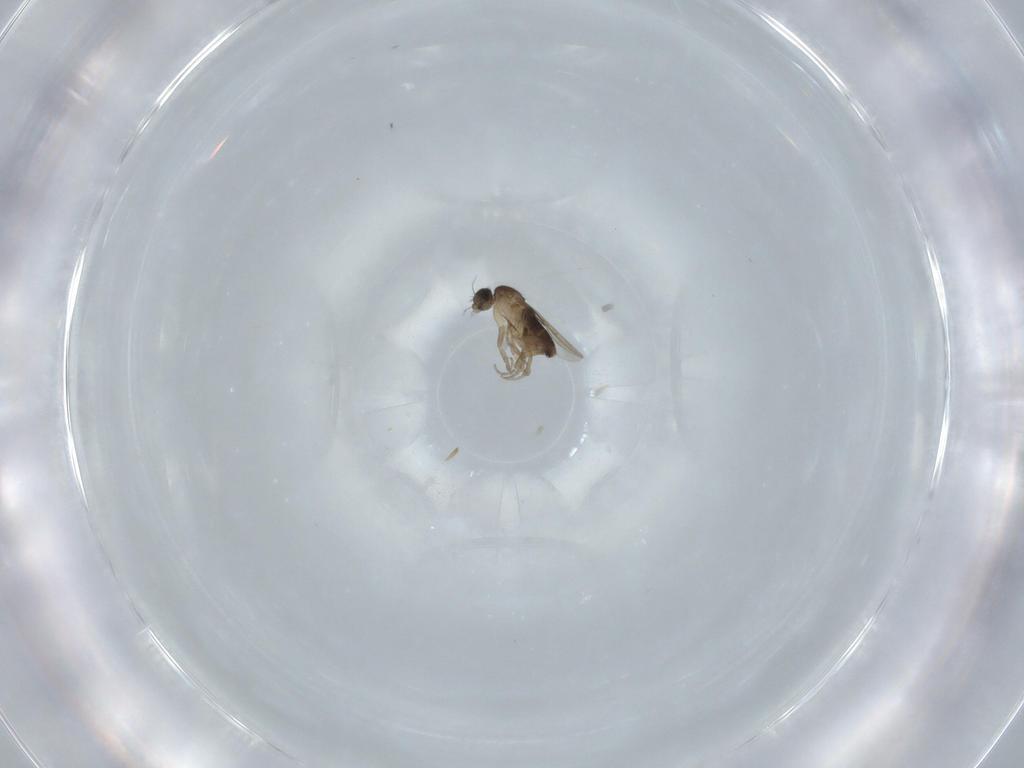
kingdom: Animalia
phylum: Arthropoda
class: Insecta
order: Diptera
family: Phoridae
